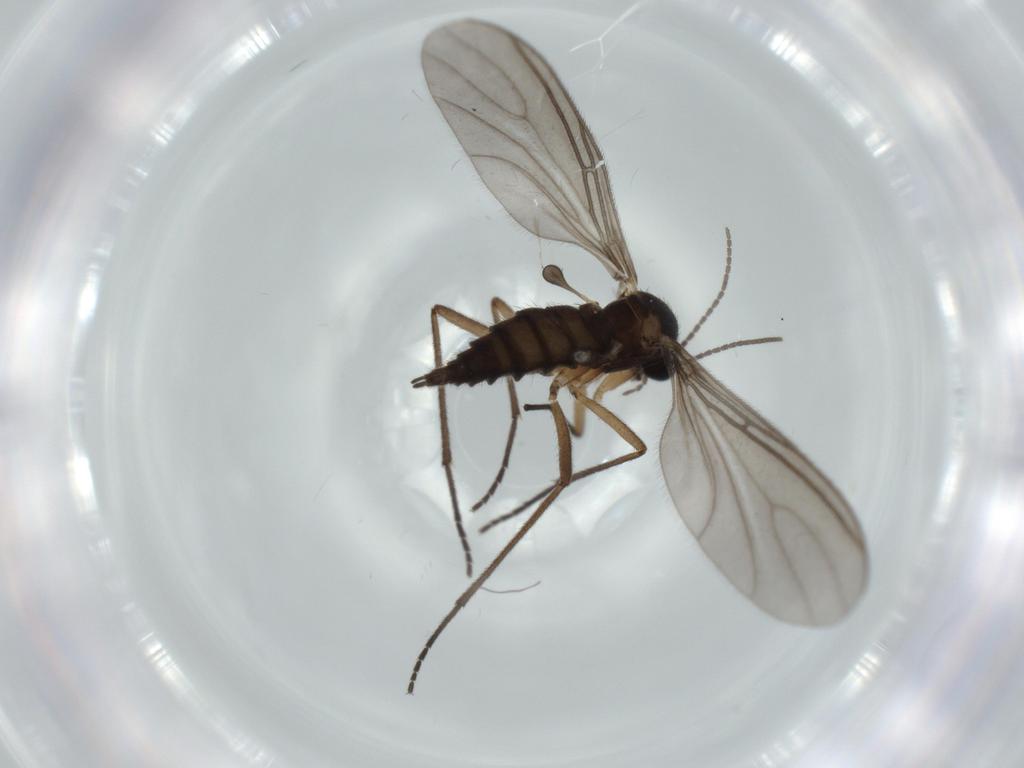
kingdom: Animalia
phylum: Arthropoda
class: Insecta
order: Diptera
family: Sciaridae
